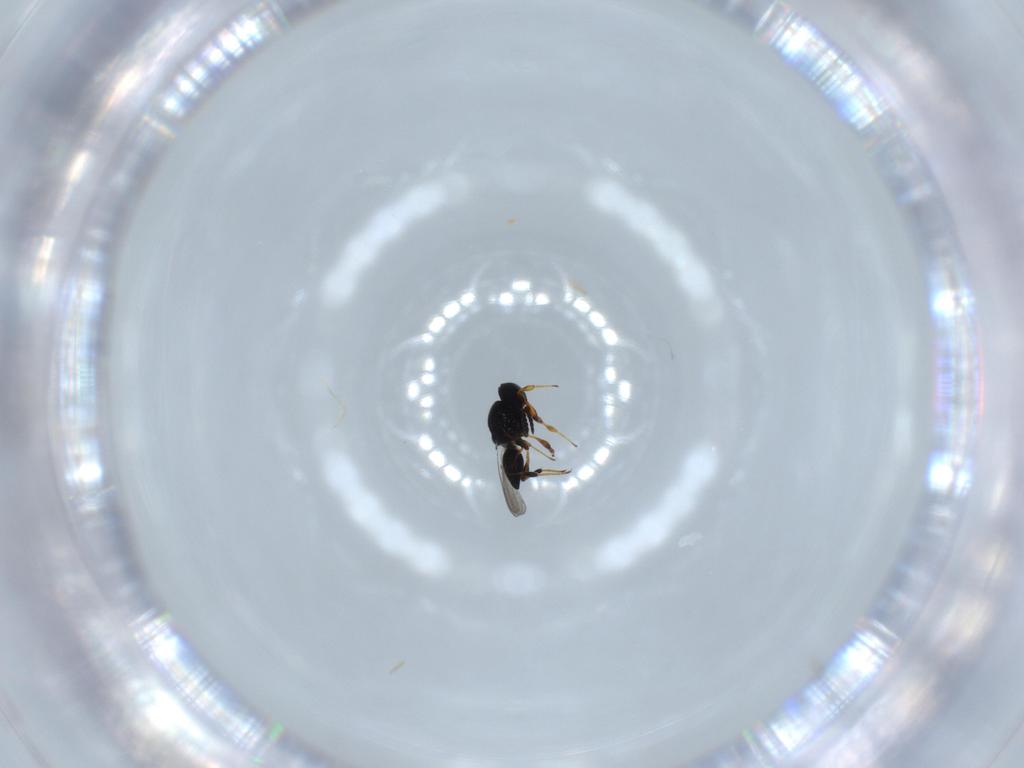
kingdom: Animalia
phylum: Arthropoda
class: Insecta
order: Hymenoptera
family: Platygastridae
